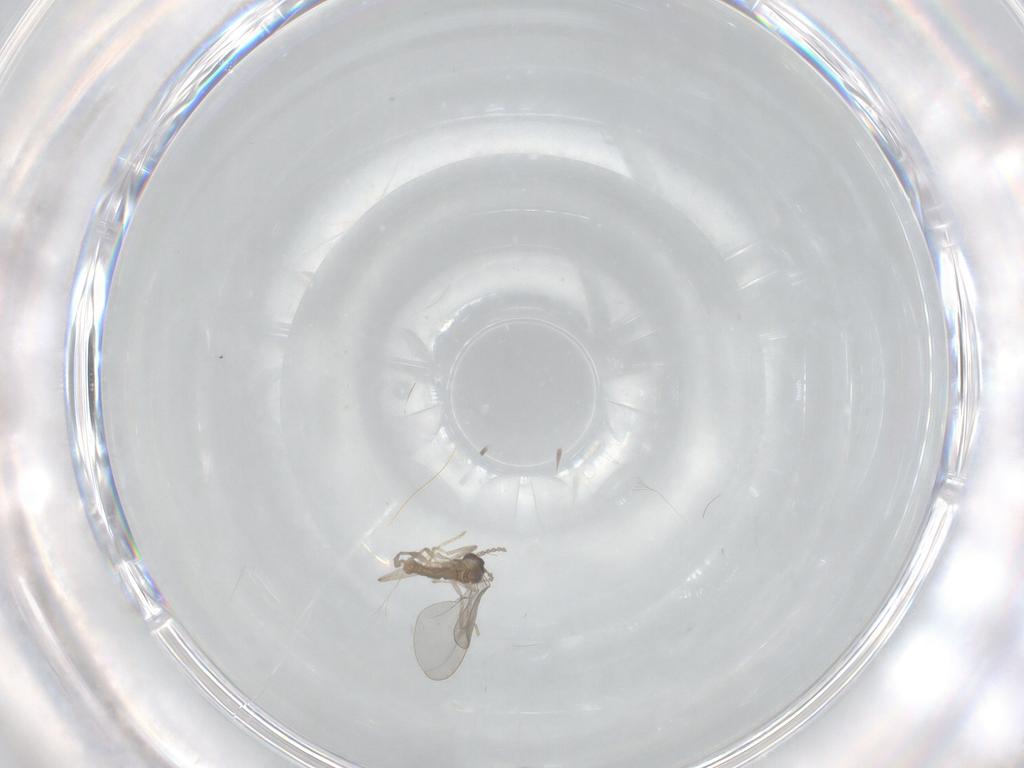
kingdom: Animalia
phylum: Arthropoda
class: Insecta
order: Diptera
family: Cecidomyiidae
